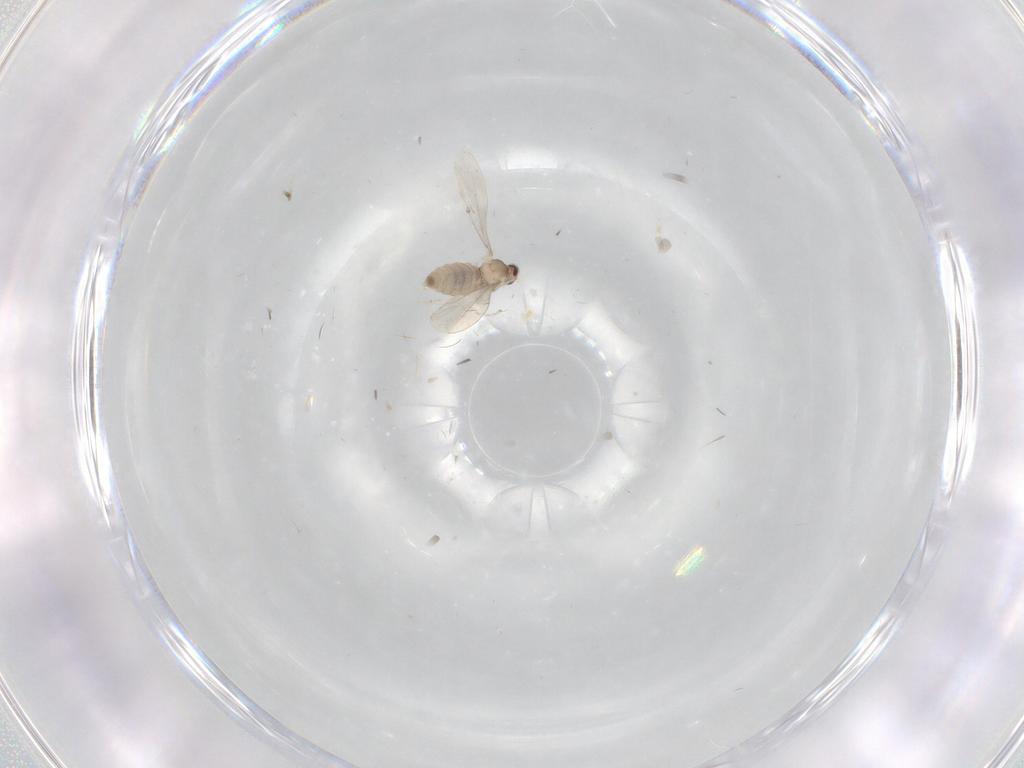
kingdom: Animalia
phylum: Arthropoda
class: Insecta
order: Diptera
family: Cecidomyiidae
